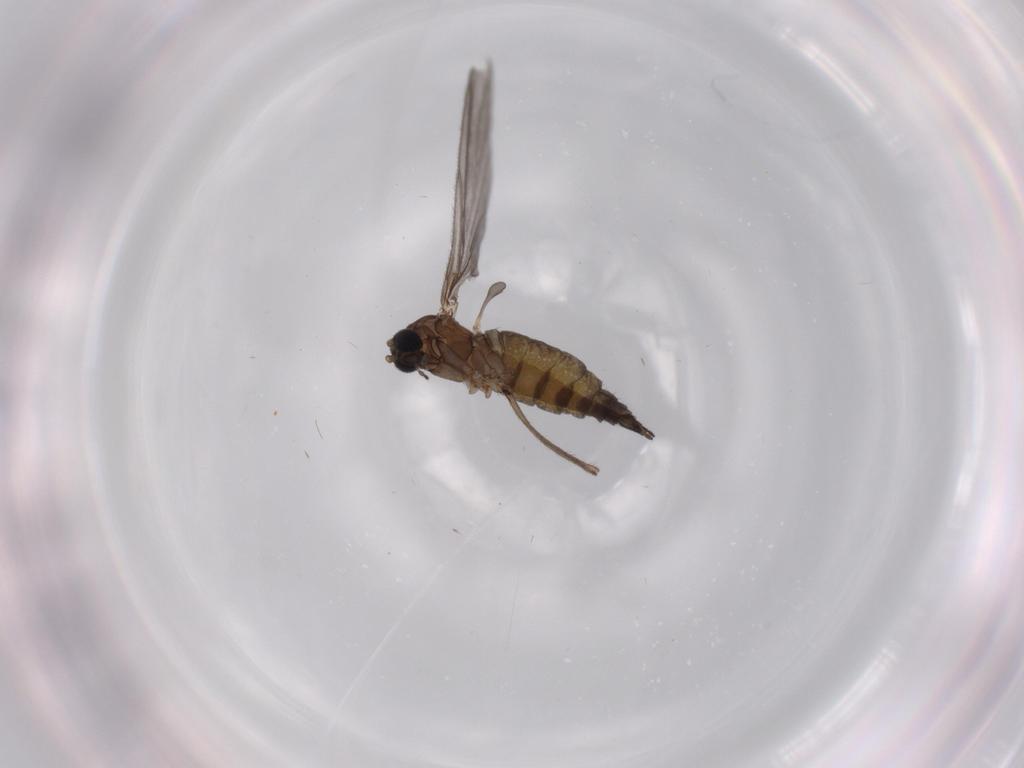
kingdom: Animalia
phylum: Arthropoda
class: Insecta
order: Diptera
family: Sciaridae
